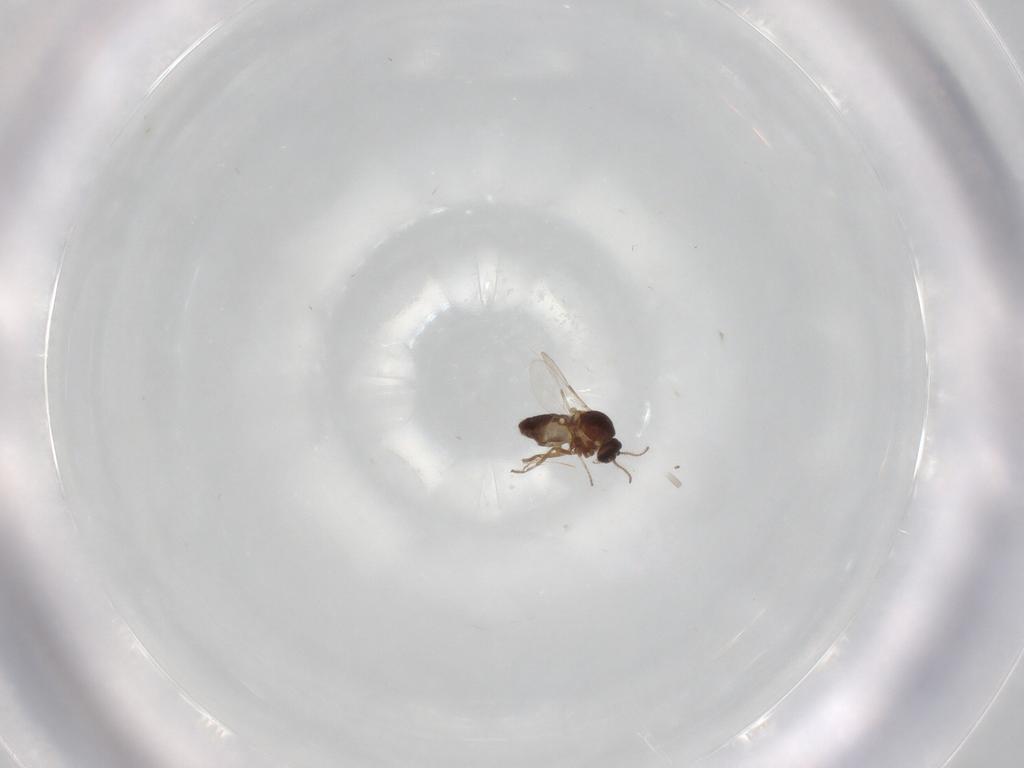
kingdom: Animalia
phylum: Arthropoda
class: Insecta
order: Diptera
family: Ceratopogonidae
